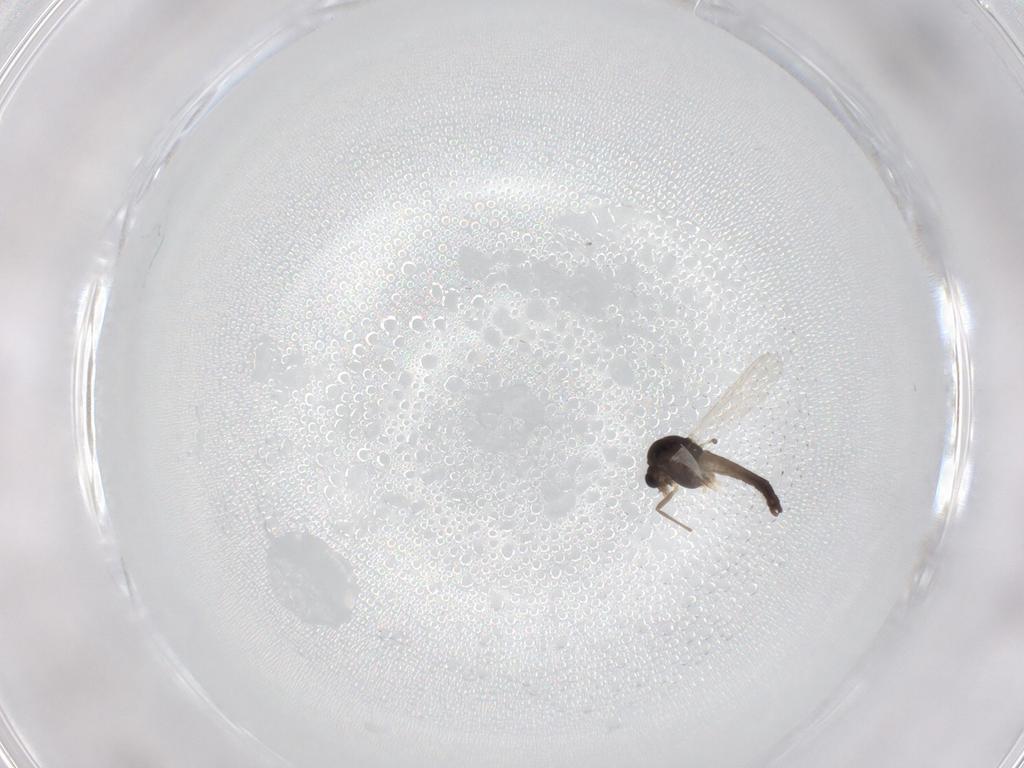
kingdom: Animalia
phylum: Arthropoda
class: Insecta
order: Diptera
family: Chironomidae
